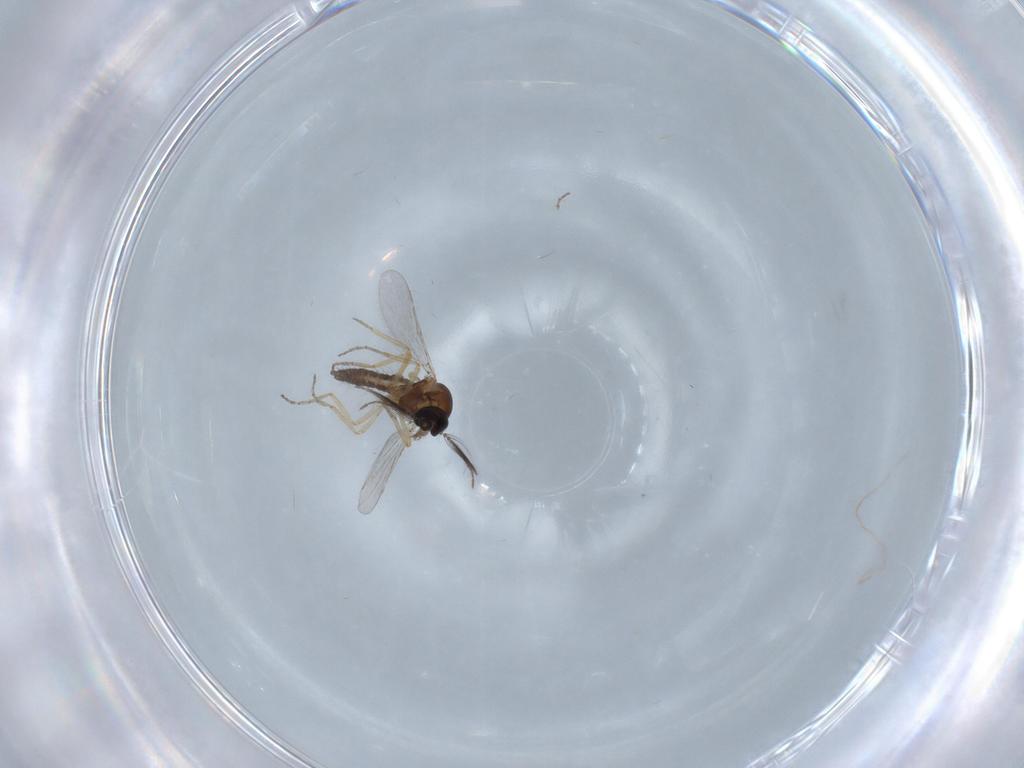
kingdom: Animalia
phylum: Arthropoda
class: Insecta
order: Diptera
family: Ceratopogonidae
